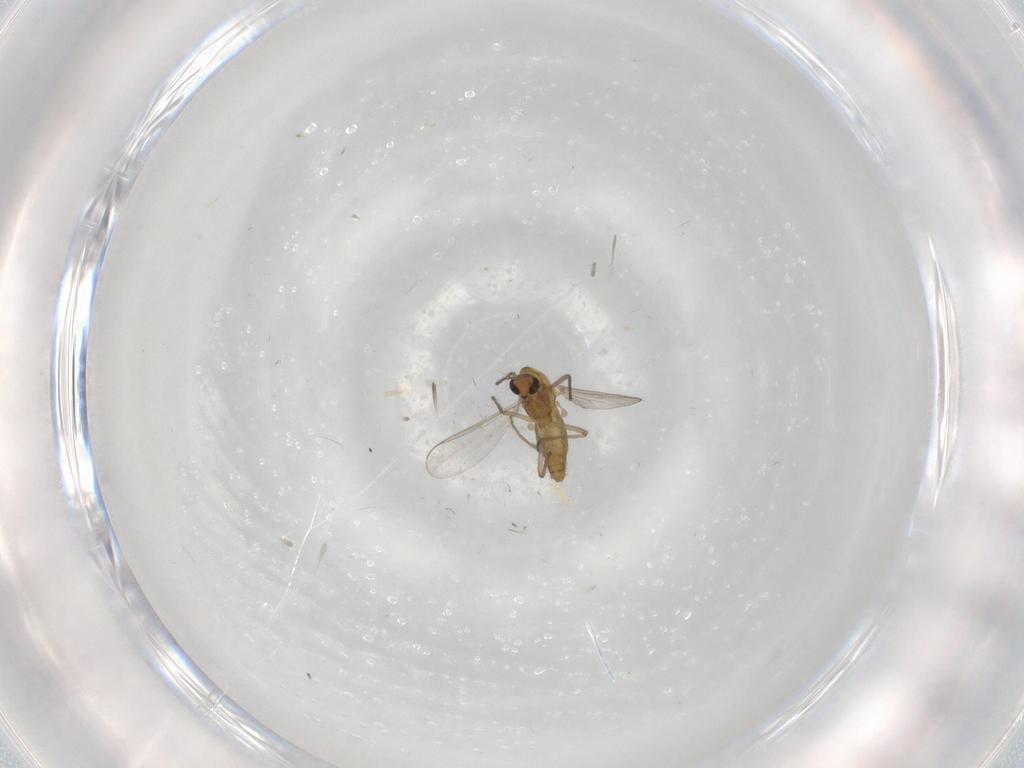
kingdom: Animalia
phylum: Arthropoda
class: Insecta
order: Diptera
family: Chironomidae
